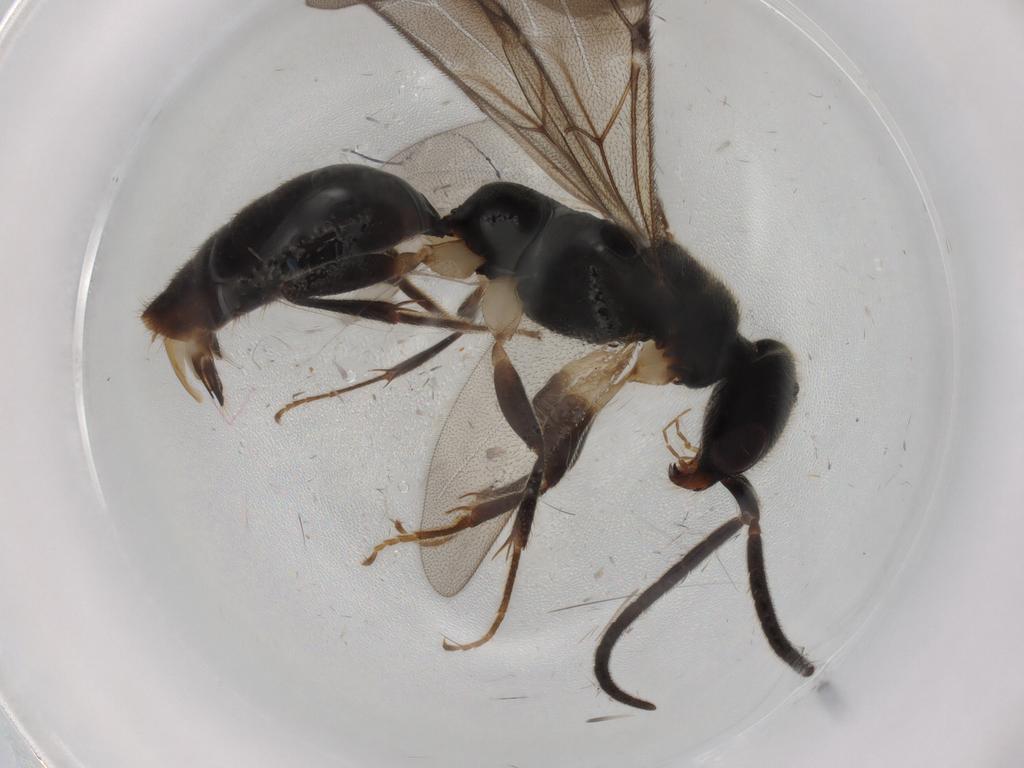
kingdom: Animalia
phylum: Arthropoda
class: Insecta
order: Hymenoptera
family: Bethylidae
